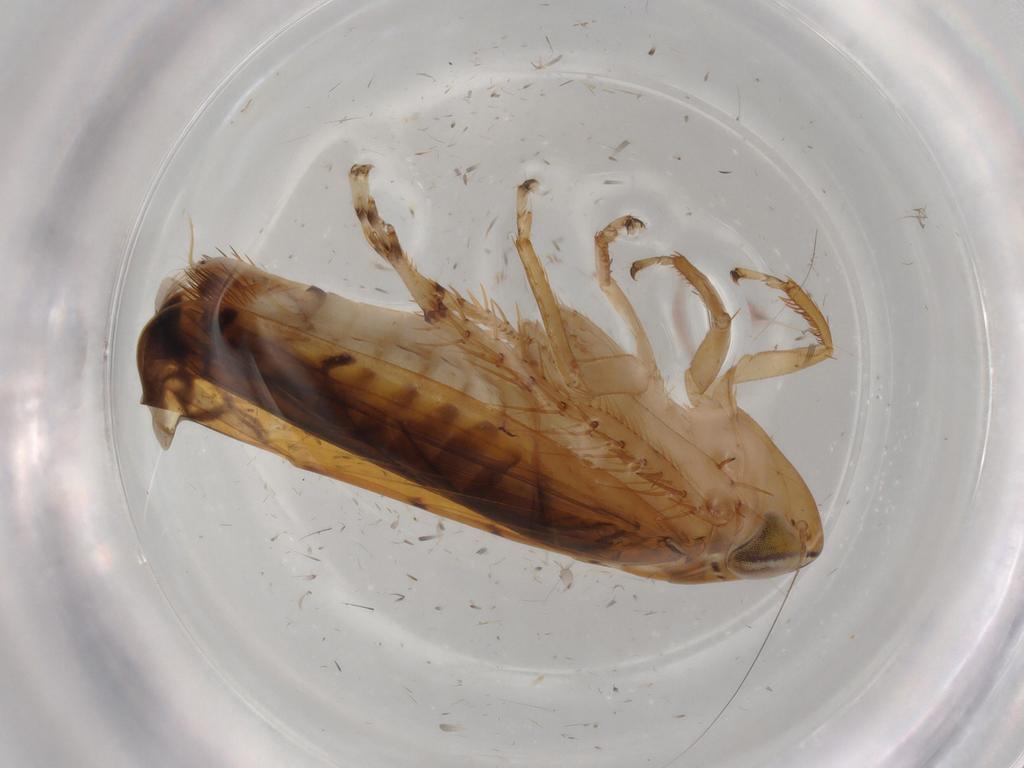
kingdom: Animalia
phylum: Arthropoda
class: Insecta
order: Hemiptera
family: Cicadellidae
